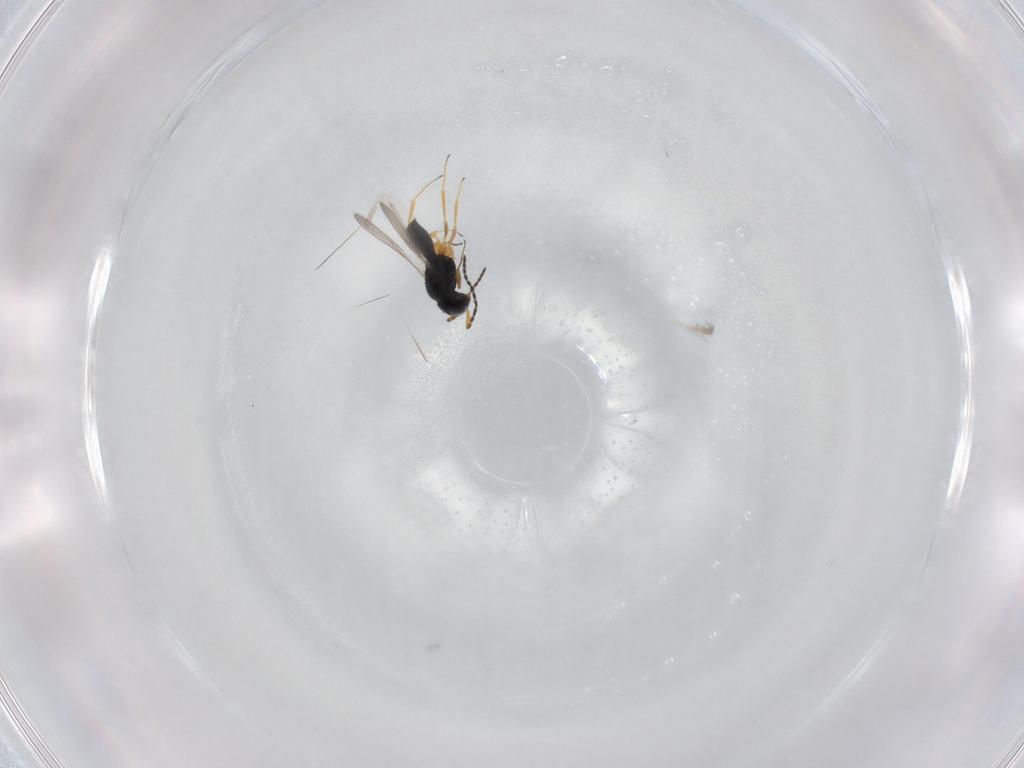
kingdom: Animalia
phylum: Arthropoda
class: Insecta
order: Hymenoptera
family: Scelionidae
